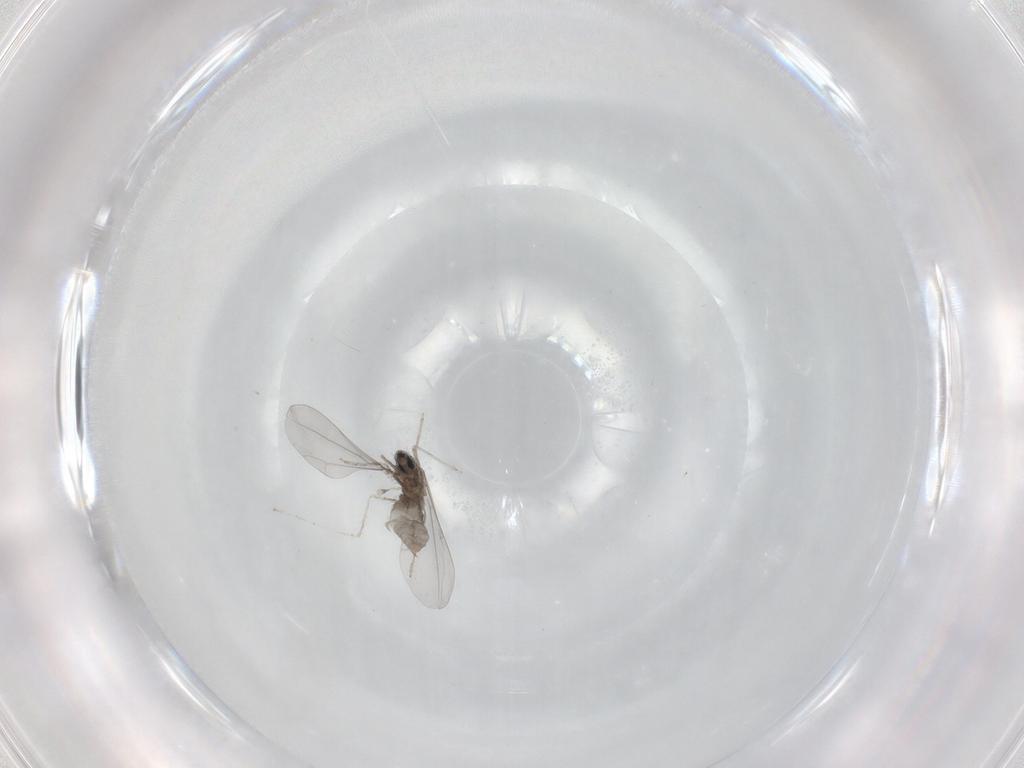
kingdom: Animalia
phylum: Arthropoda
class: Insecta
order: Diptera
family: Cecidomyiidae
